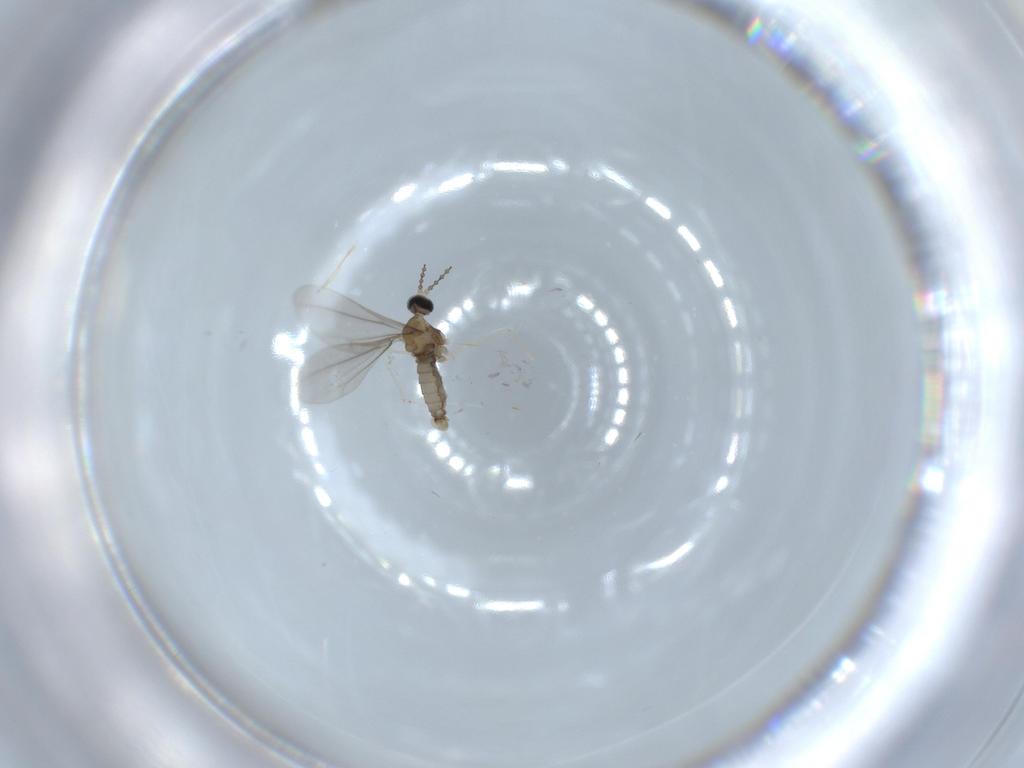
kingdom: Animalia
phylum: Arthropoda
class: Insecta
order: Diptera
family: Cecidomyiidae
